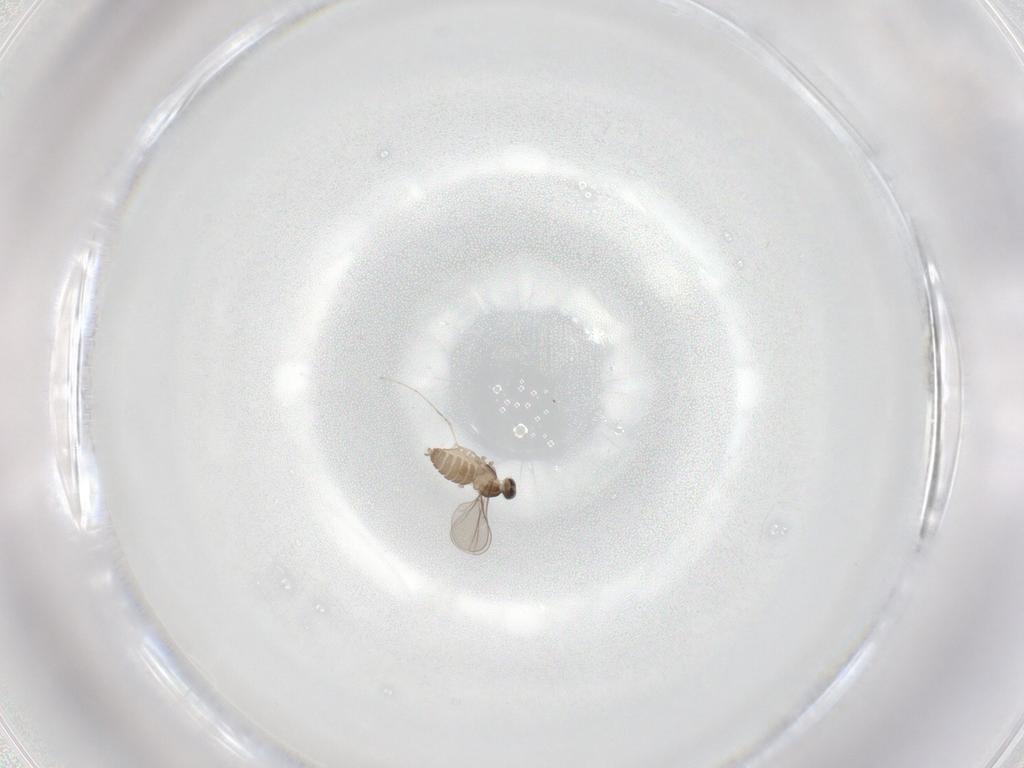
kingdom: Animalia
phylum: Arthropoda
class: Insecta
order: Diptera
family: Cecidomyiidae
